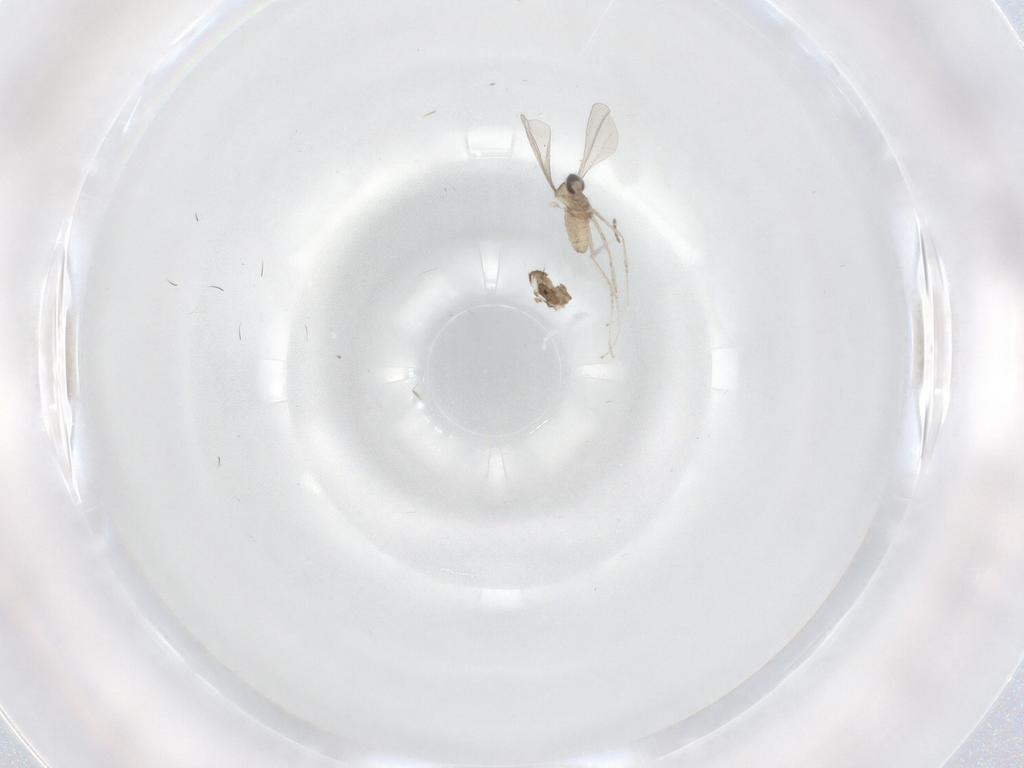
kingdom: Animalia
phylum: Arthropoda
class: Insecta
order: Diptera
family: Cecidomyiidae
